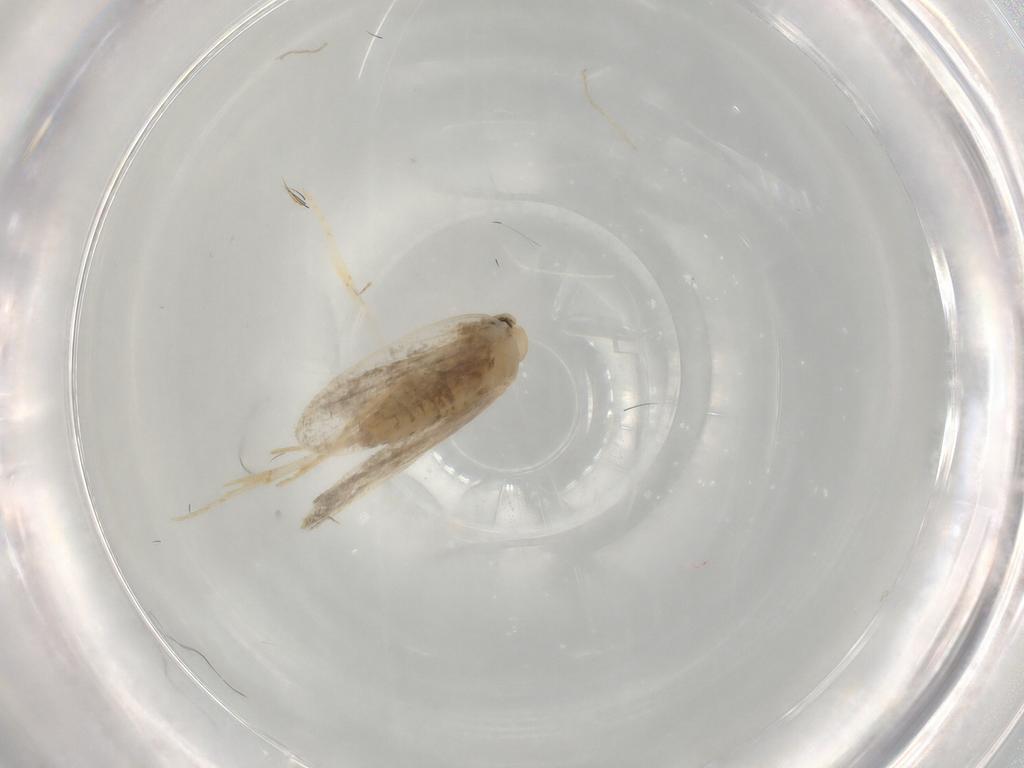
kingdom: Animalia
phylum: Arthropoda
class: Insecta
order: Lepidoptera
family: Psychidae
